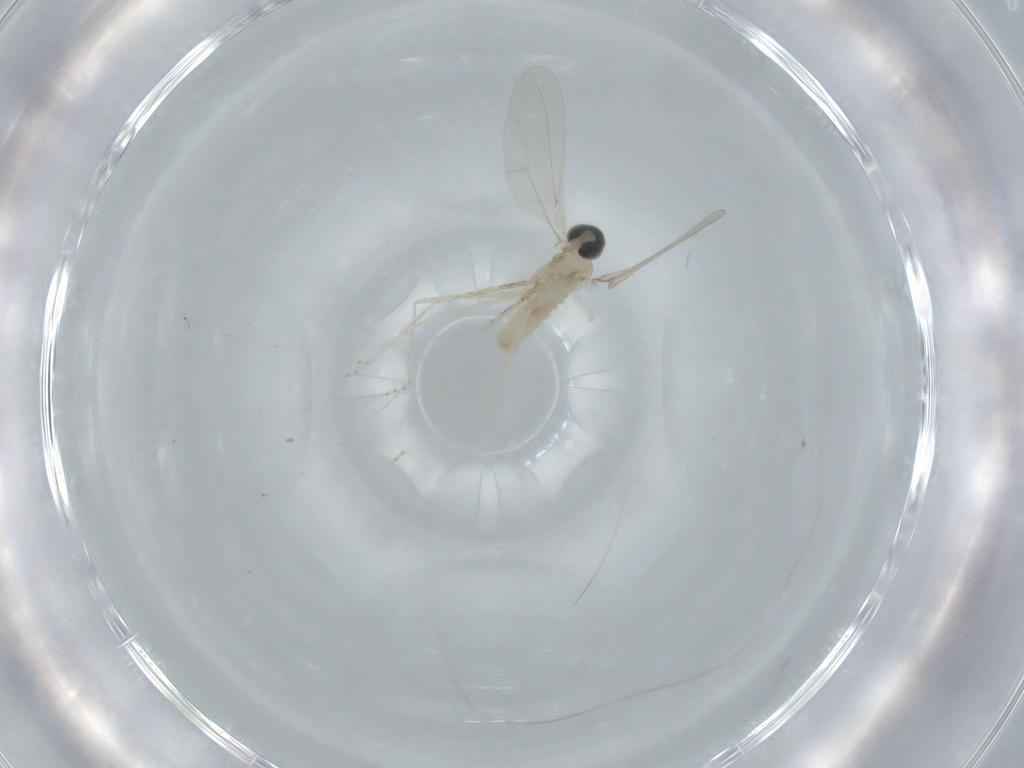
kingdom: Animalia
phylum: Arthropoda
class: Insecta
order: Diptera
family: Cecidomyiidae
